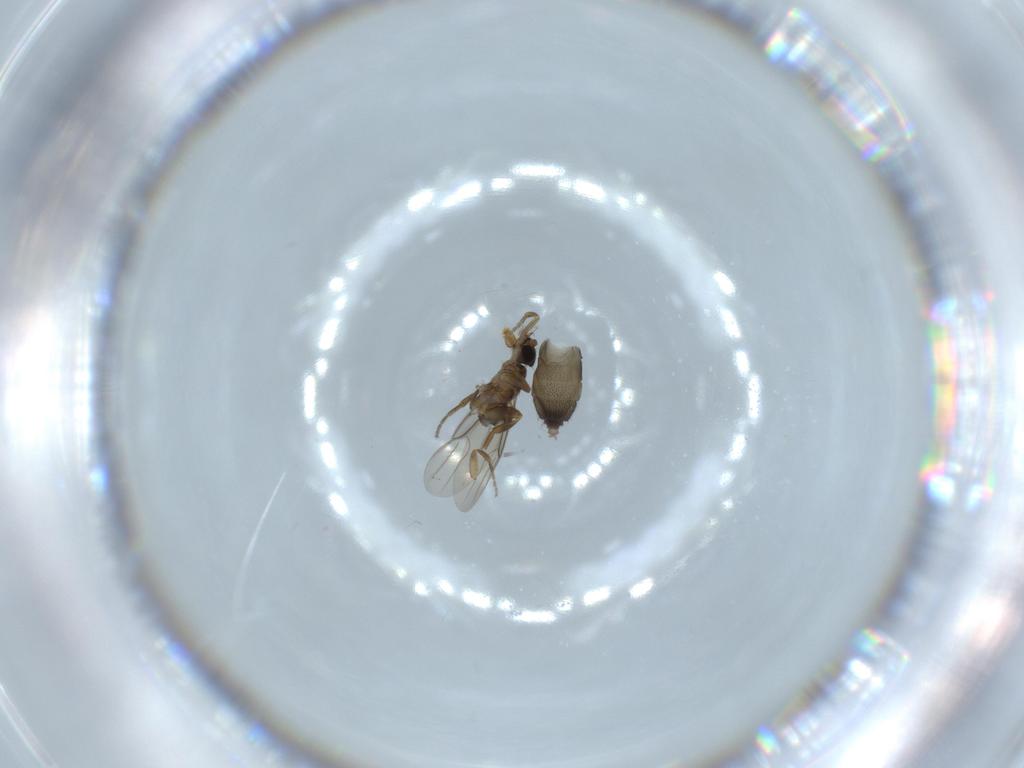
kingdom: Animalia
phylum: Arthropoda
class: Insecta
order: Diptera
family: Phoridae
